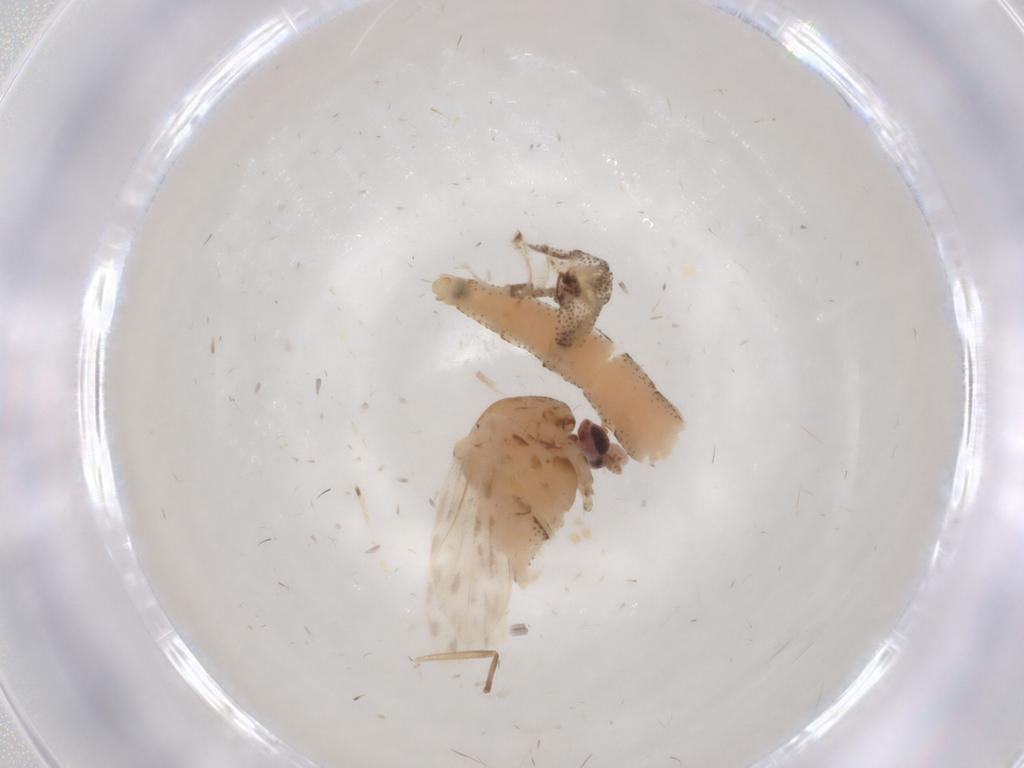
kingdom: Animalia
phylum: Arthropoda
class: Insecta
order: Diptera
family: Chaoboridae
